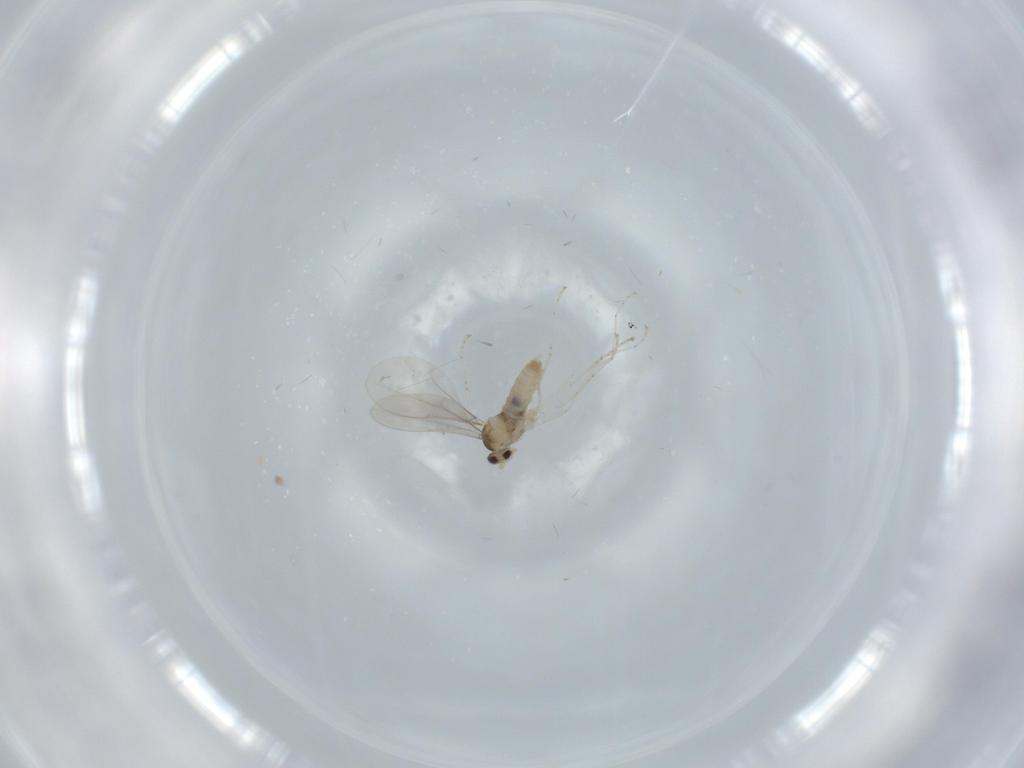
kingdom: Animalia
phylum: Arthropoda
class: Insecta
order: Diptera
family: Cecidomyiidae
